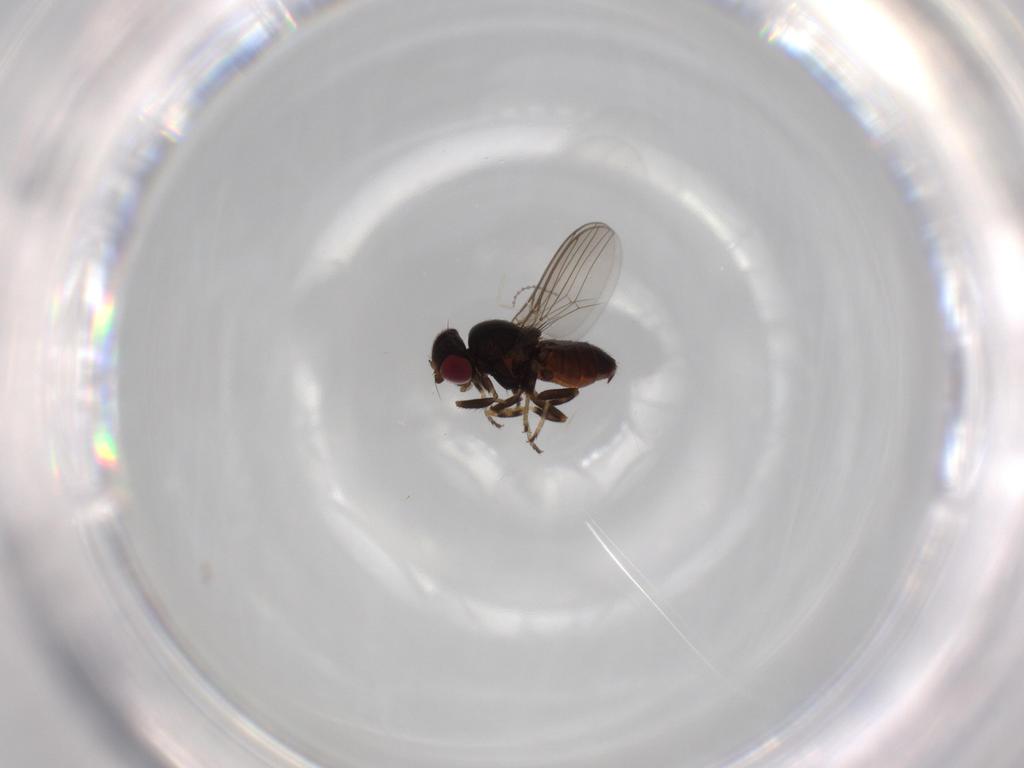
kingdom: Animalia
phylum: Arthropoda
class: Insecta
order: Diptera
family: Chloropidae
